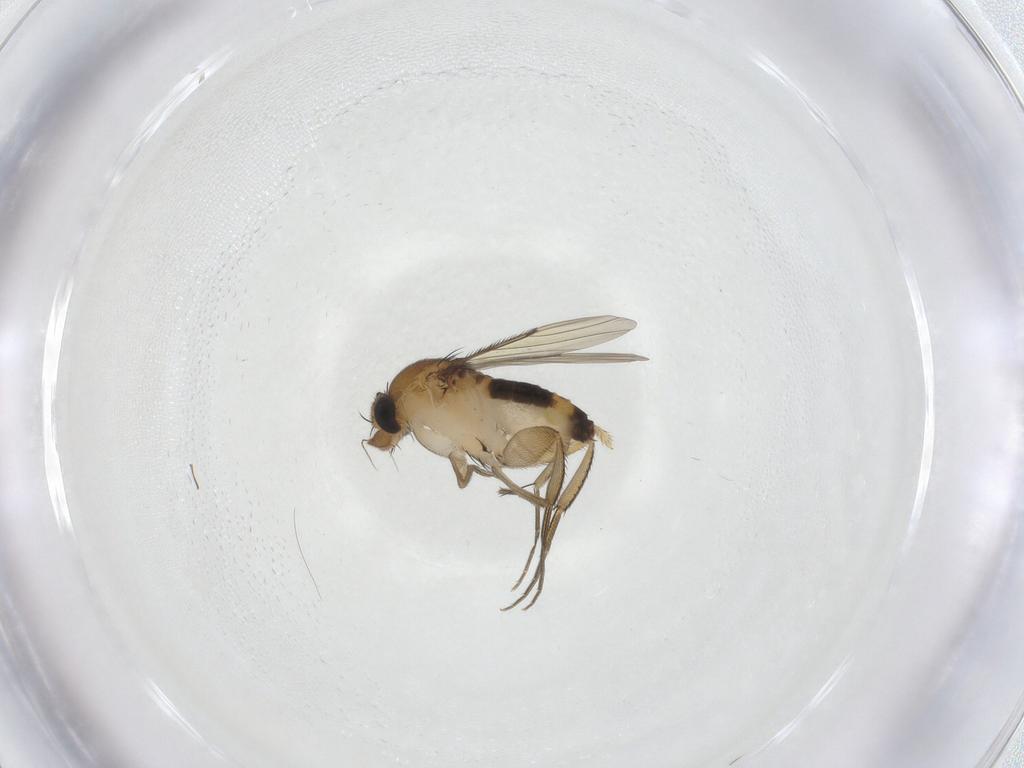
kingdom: Animalia
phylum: Arthropoda
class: Insecta
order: Diptera
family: Phoridae
